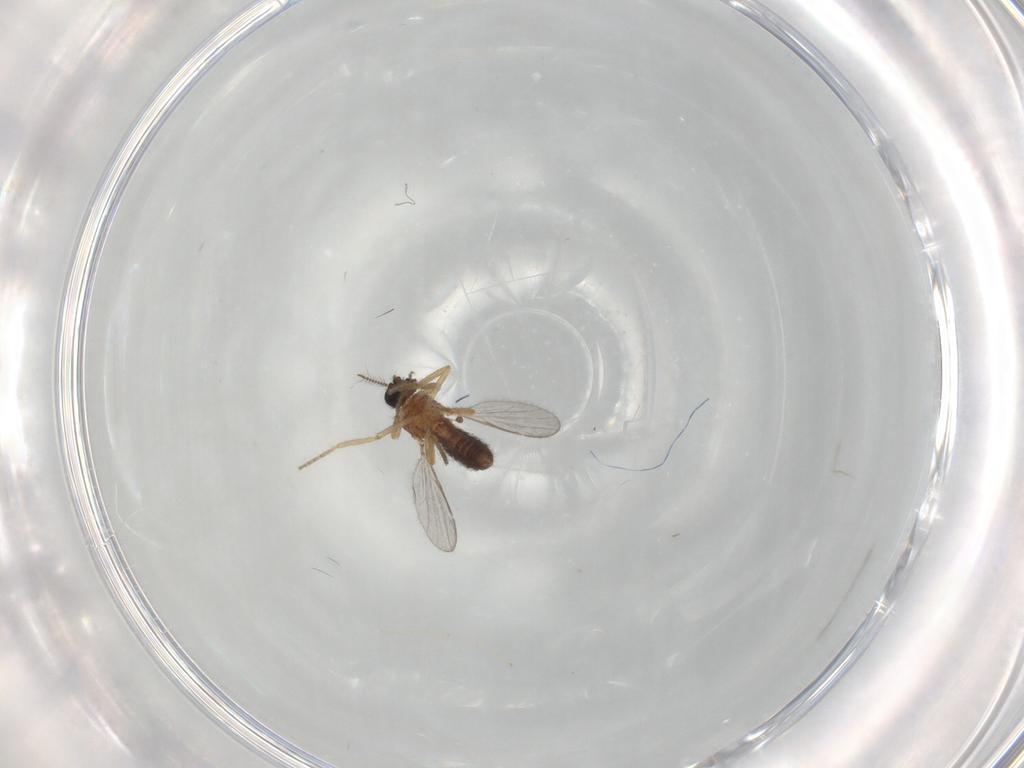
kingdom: Animalia
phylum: Arthropoda
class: Insecta
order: Diptera
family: Ceratopogonidae
